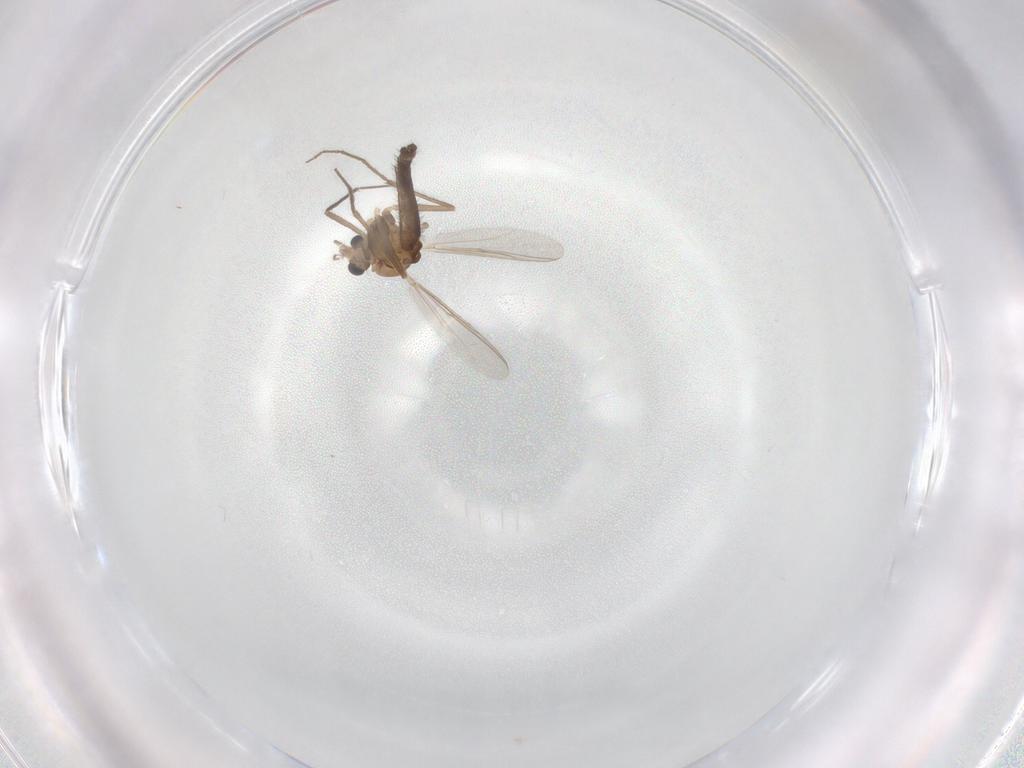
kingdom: Animalia
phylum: Arthropoda
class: Insecta
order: Diptera
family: Chironomidae
